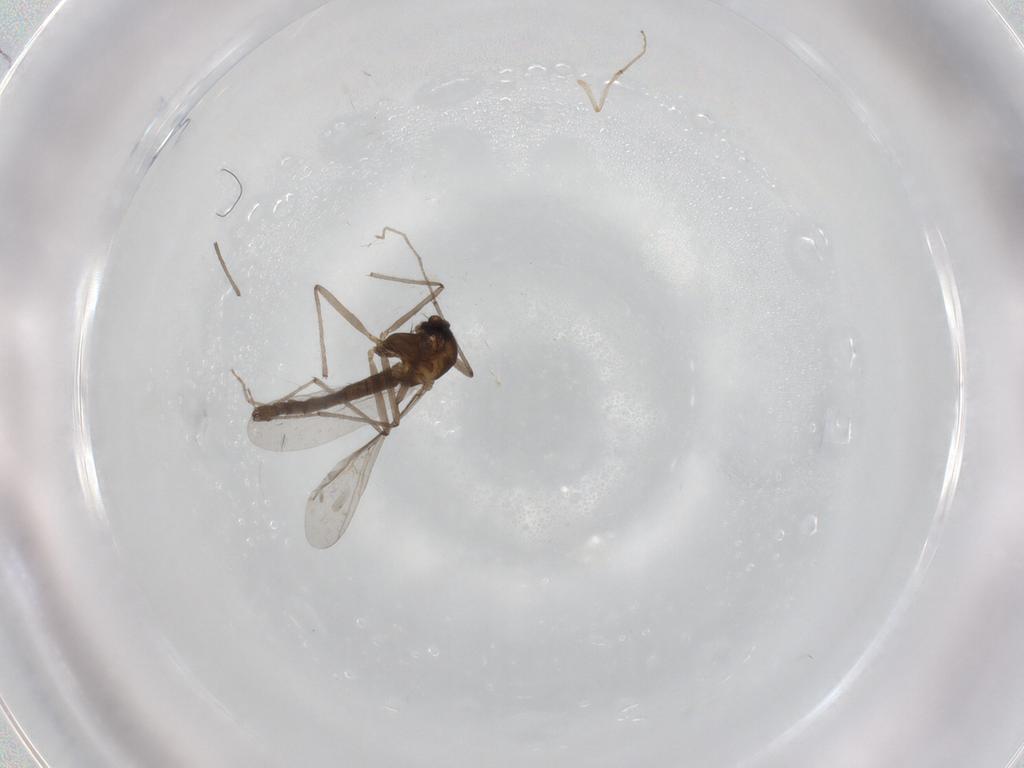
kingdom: Animalia
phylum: Arthropoda
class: Insecta
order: Diptera
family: Chironomidae
